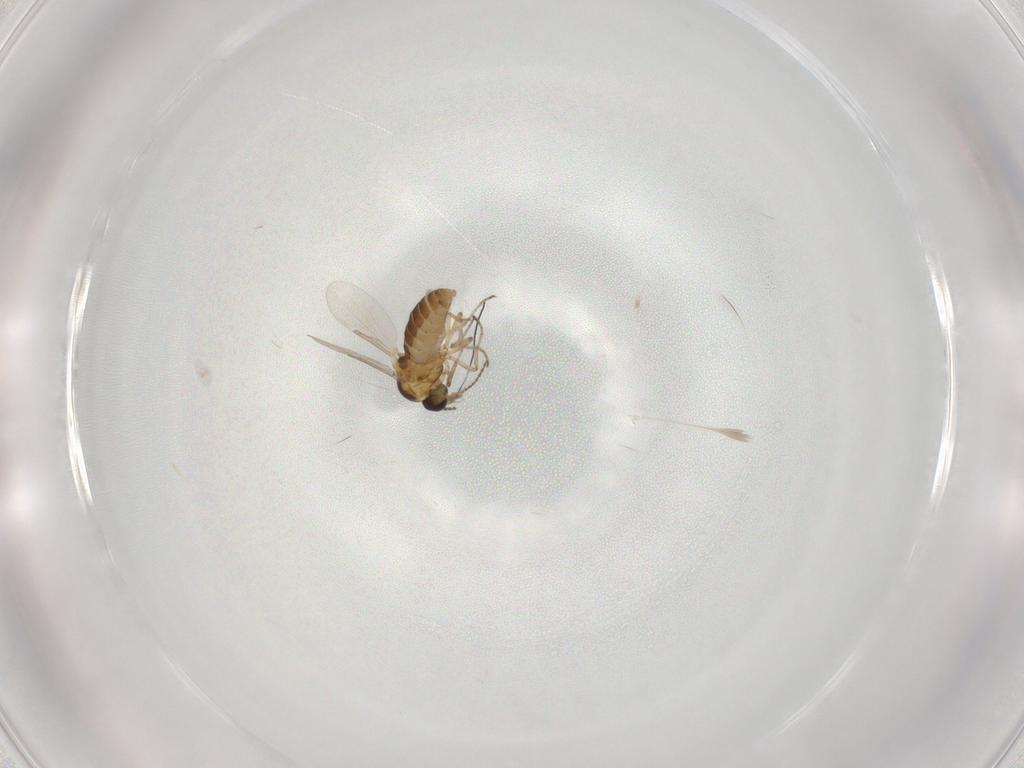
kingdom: Animalia
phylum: Arthropoda
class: Insecta
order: Diptera
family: Ceratopogonidae
